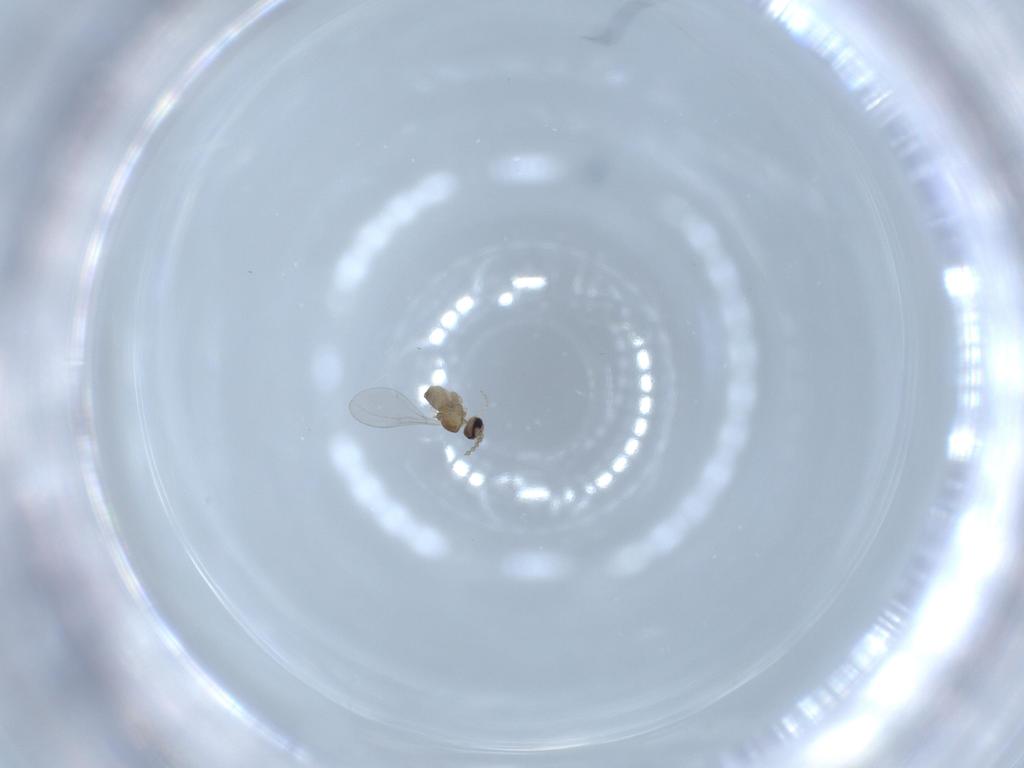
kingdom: Animalia
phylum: Arthropoda
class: Insecta
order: Diptera
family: Cecidomyiidae
